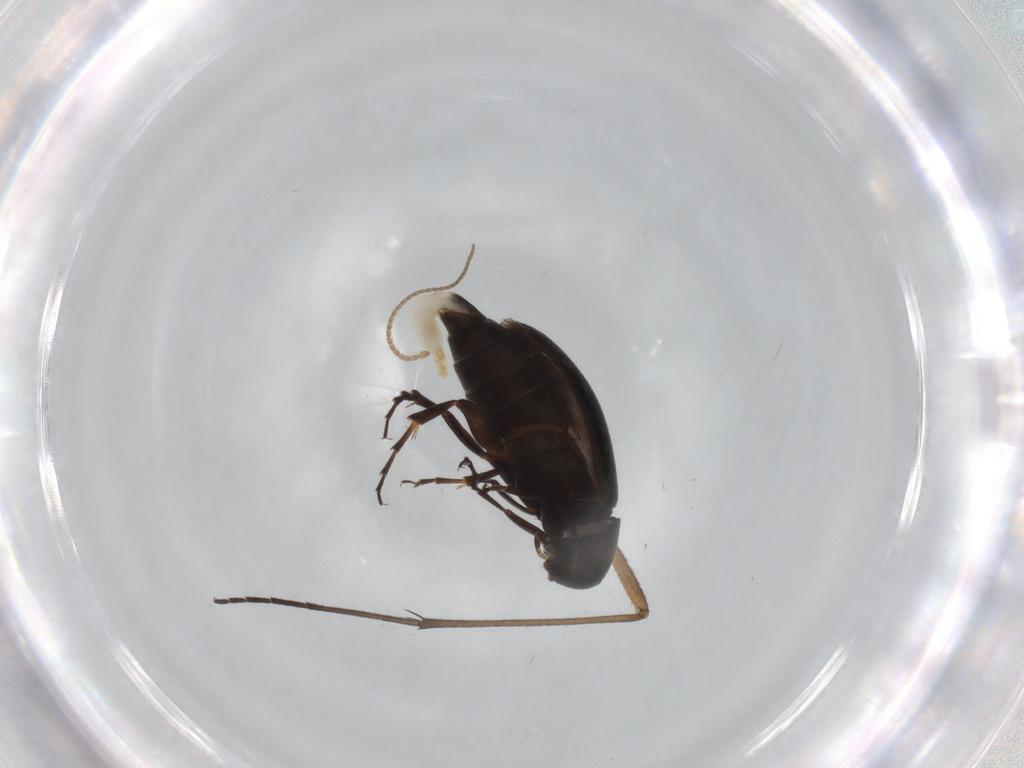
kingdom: Animalia
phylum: Arthropoda
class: Insecta
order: Coleoptera
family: Scraptiidae
